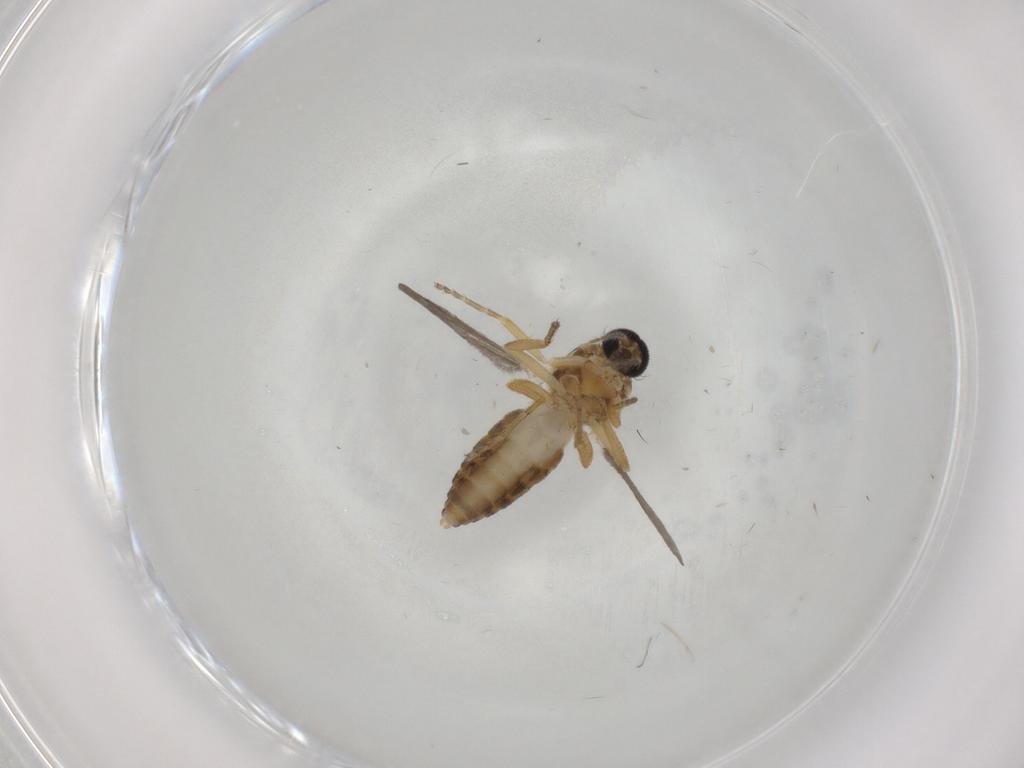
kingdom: Animalia
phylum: Arthropoda
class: Insecta
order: Diptera
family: Ceratopogonidae
